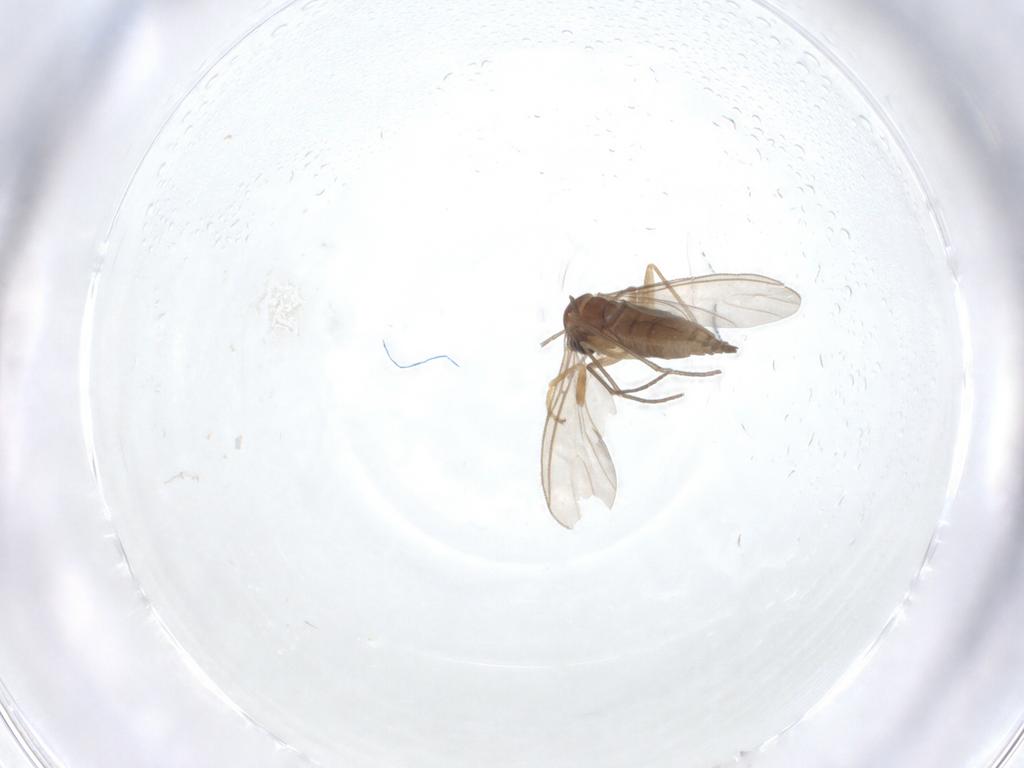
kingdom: Animalia
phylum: Arthropoda
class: Insecta
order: Diptera
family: Sciaridae
